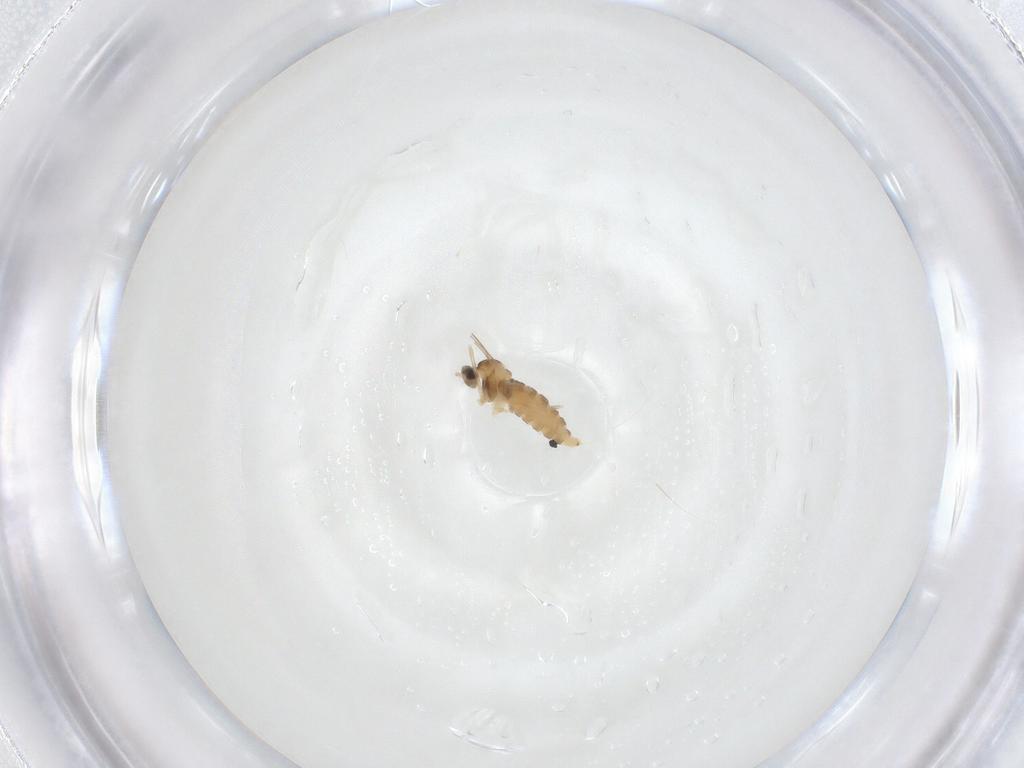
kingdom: Animalia
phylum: Arthropoda
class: Insecta
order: Diptera
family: Cecidomyiidae
